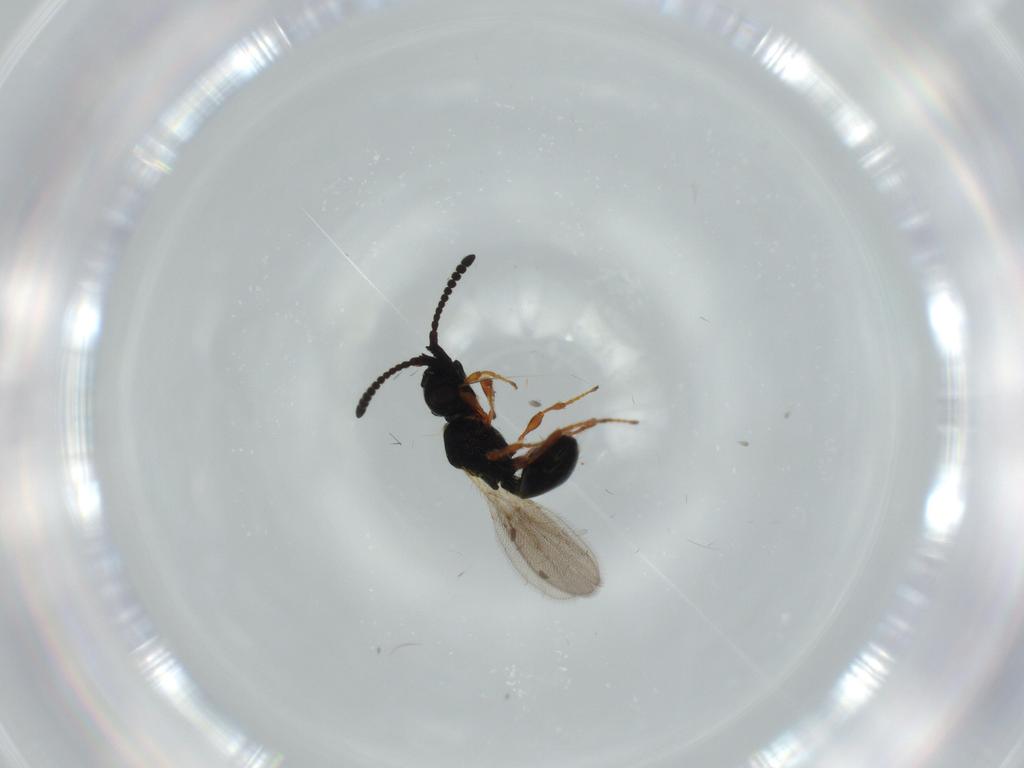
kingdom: Animalia
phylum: Arthropoda
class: Insecta
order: Hymenoptera
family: Diapriidae
